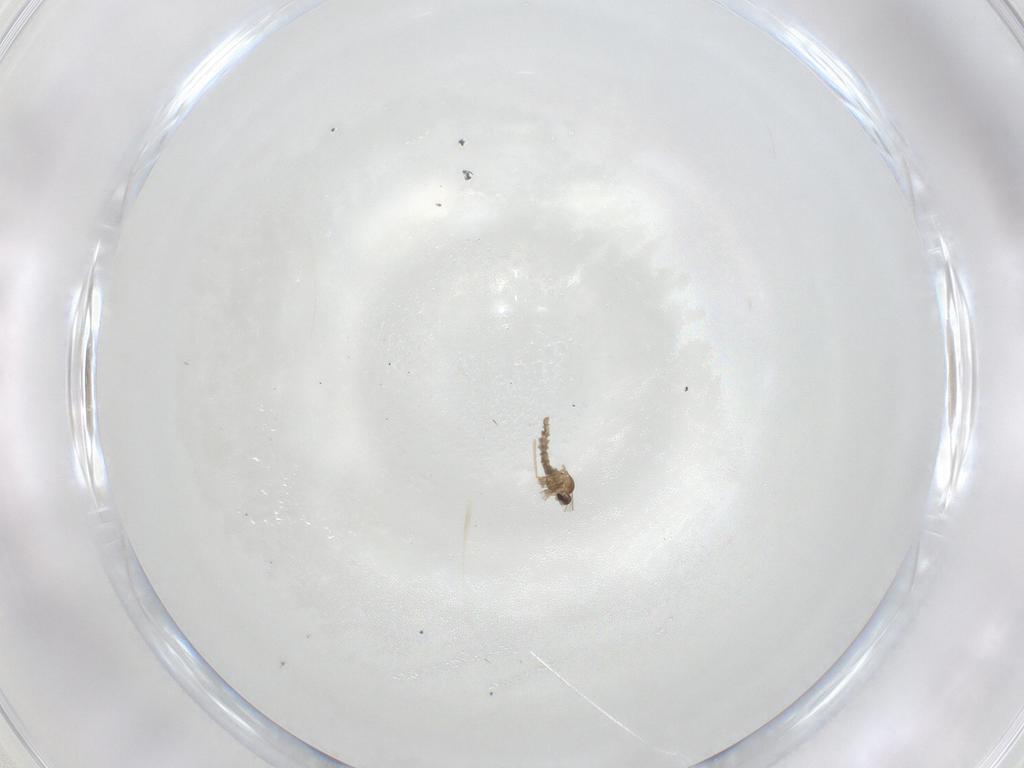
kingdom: Animalia
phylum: Arthropoda
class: Insecta
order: Diptera
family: Cecidomyiidae
